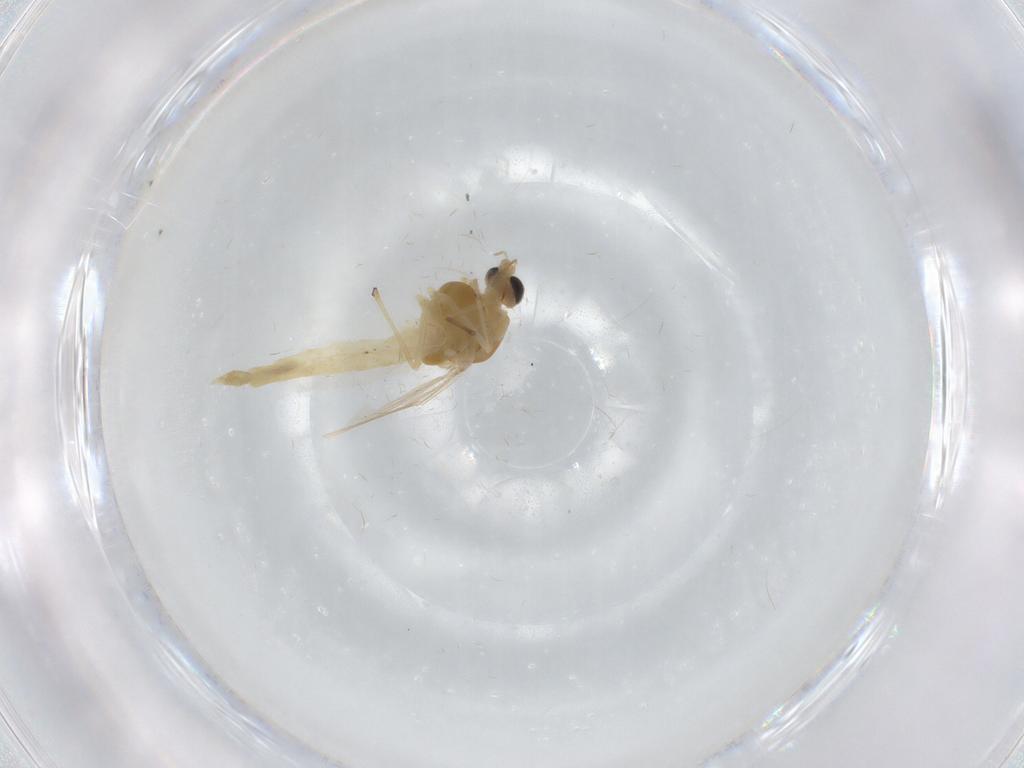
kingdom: Animalia
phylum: Arthropoda
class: Insecta
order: Diptera
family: Chironomidae
